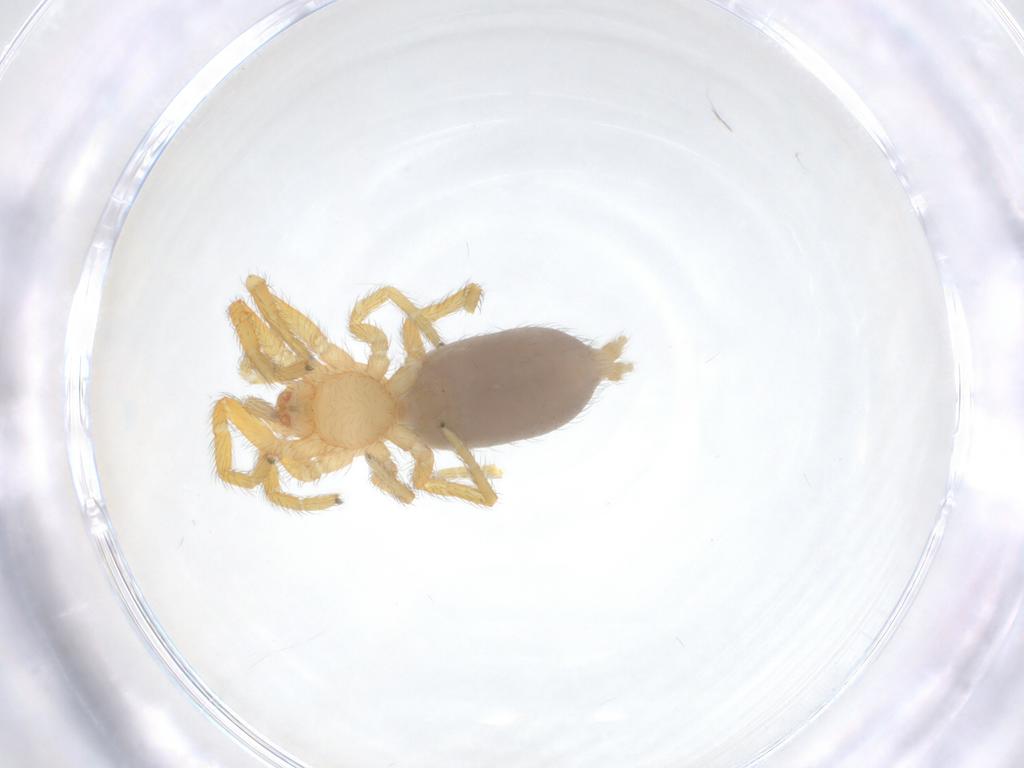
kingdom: Animalia
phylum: Arthropoda
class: Arachnida
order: Araneae
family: Caponiidae
